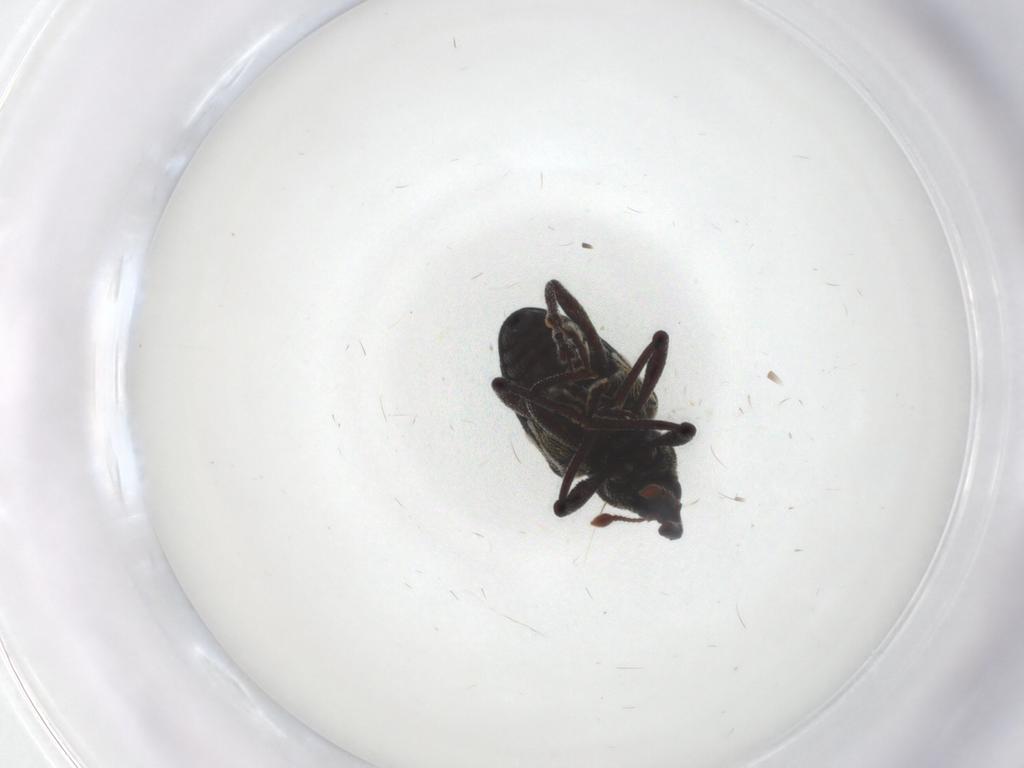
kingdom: Animalia
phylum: Arthropoda
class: Insecta
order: Coleoptera
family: Curculionidae
